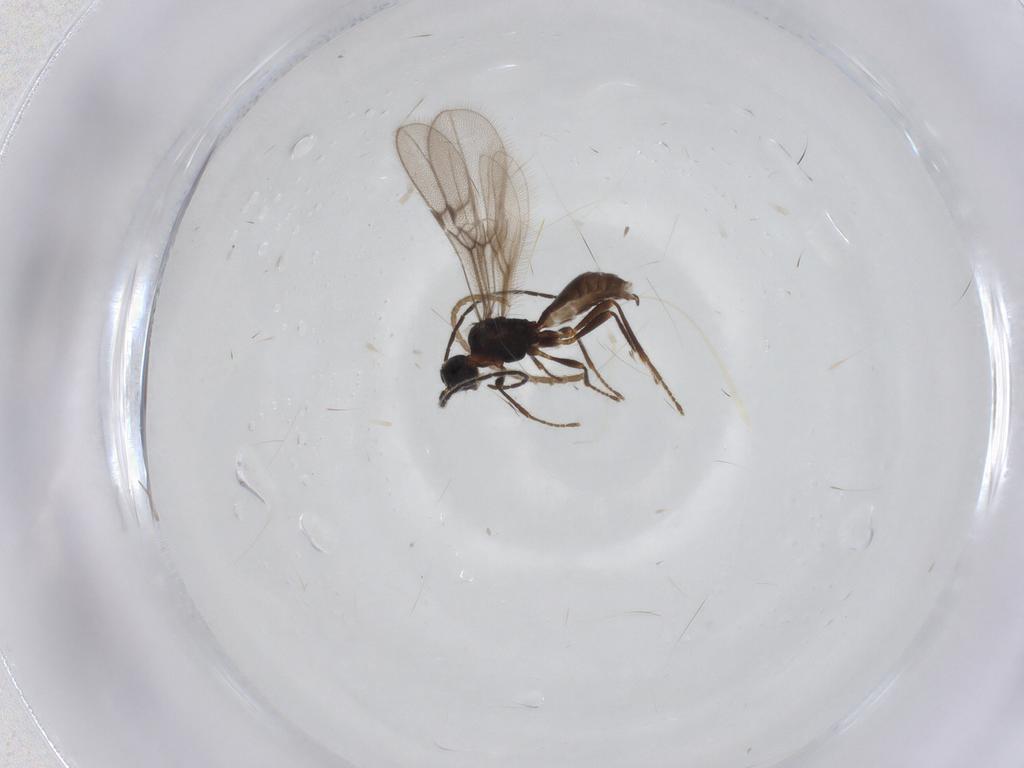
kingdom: Animalia
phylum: Arthropoda
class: Insecta
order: Hymenoptera
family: Braconidae
